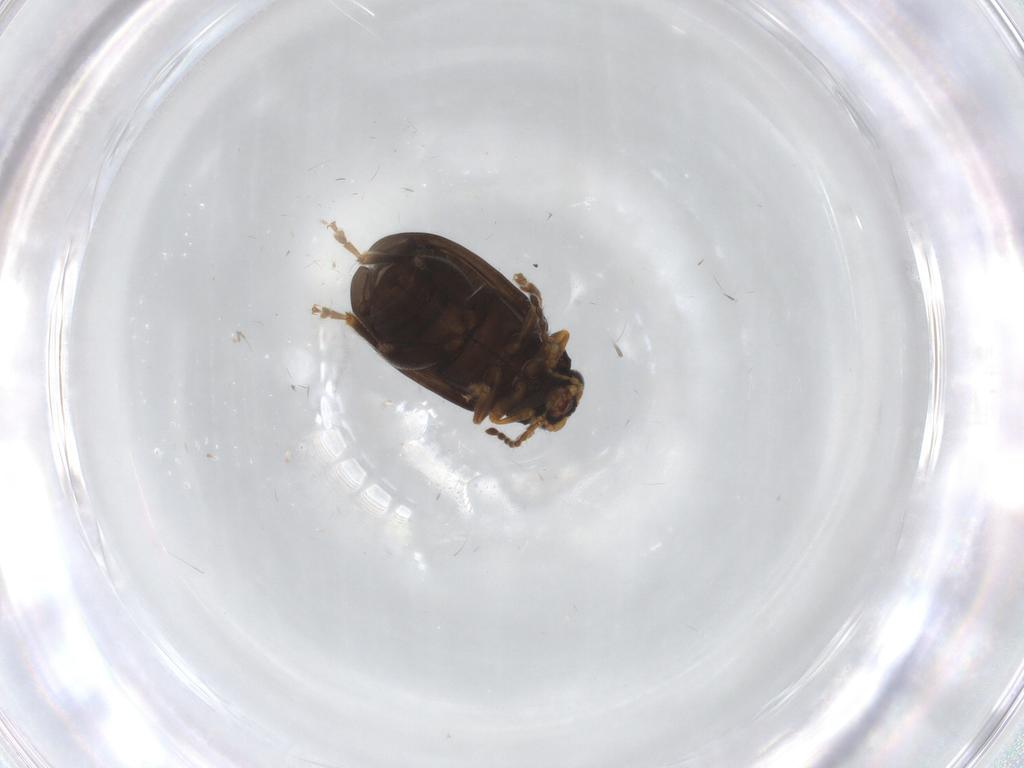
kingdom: Animalia
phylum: Arthropoda
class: Insecta
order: Coleoptera
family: Chrysomelidae
